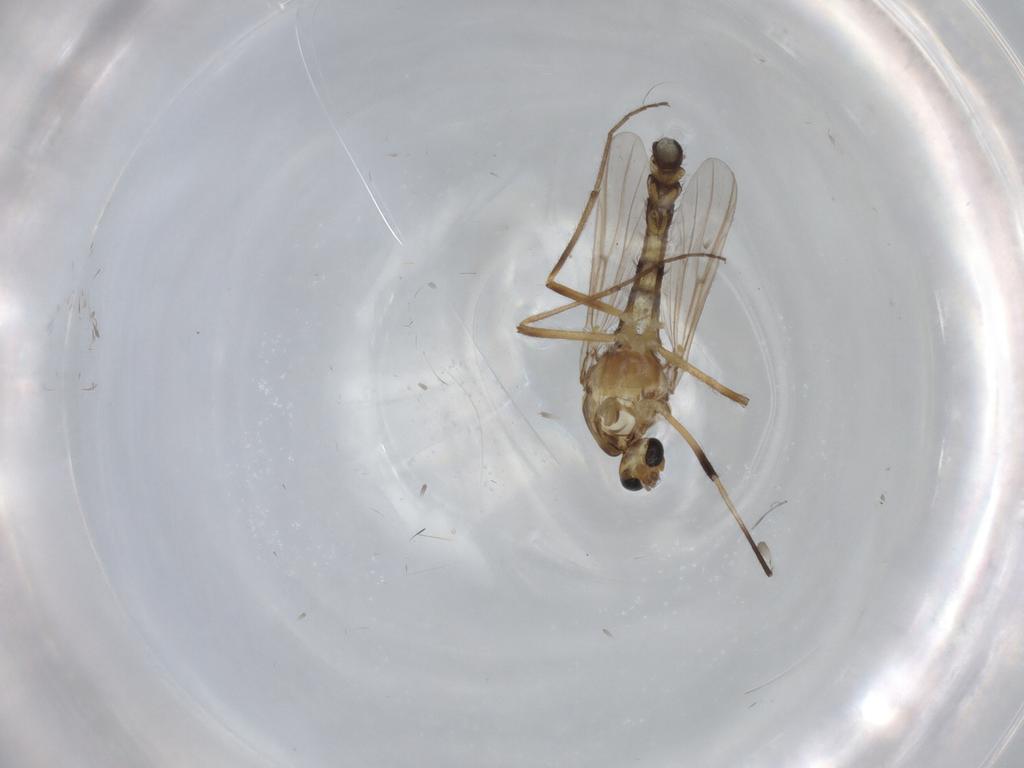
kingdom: Animalia
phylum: Arthropoda
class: Insecta
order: Diptera
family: Chironomidae
